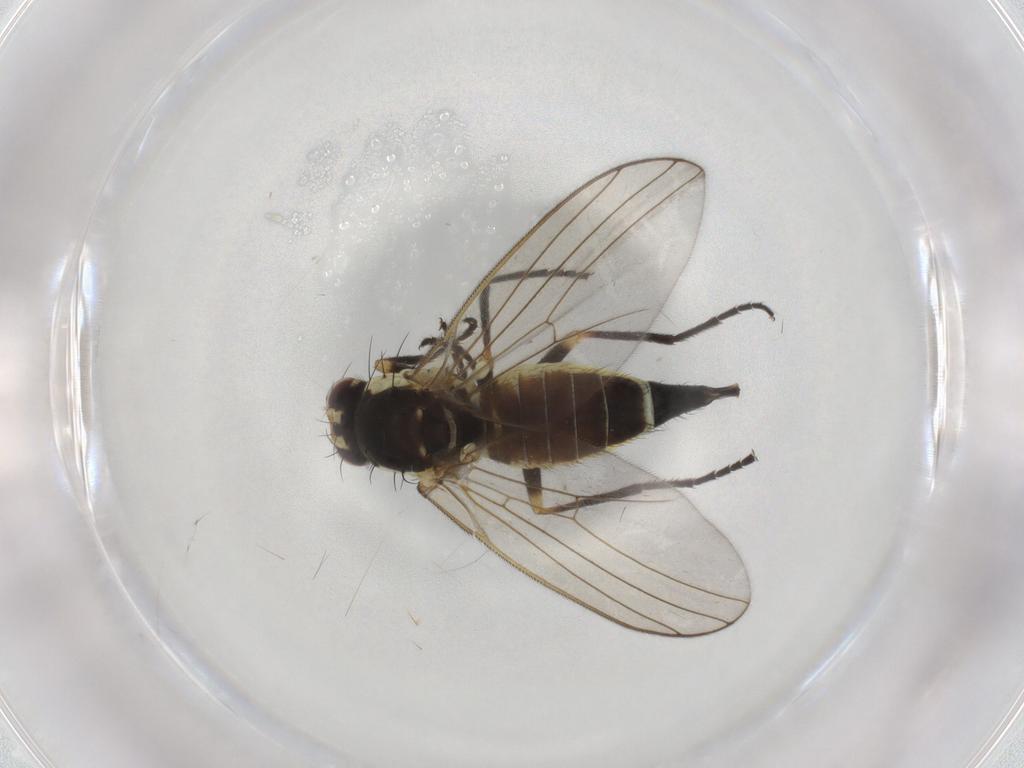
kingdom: Animalia
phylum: Arthropoda
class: Insecta
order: Diptera
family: Agromyzidae
